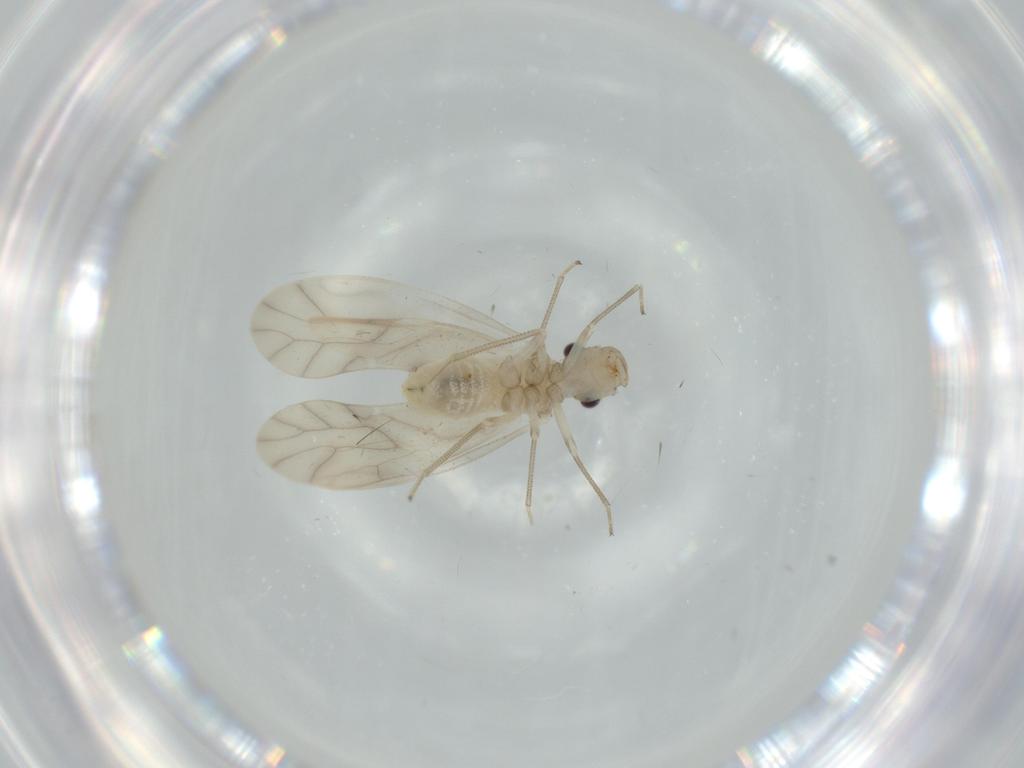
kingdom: Animalia
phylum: Arthropoda
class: Insecta
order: Psocodea
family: Caeciliusidae
